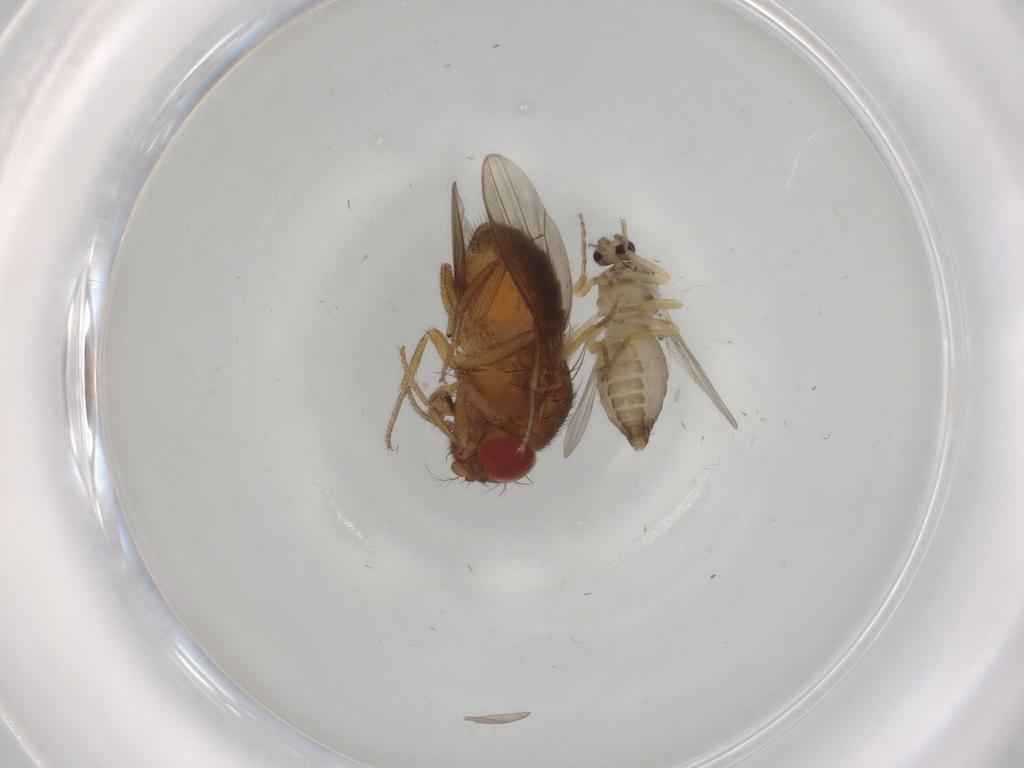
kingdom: Animalia
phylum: Arthropoda
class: Insecta
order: Diptera
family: Drosophilidae
